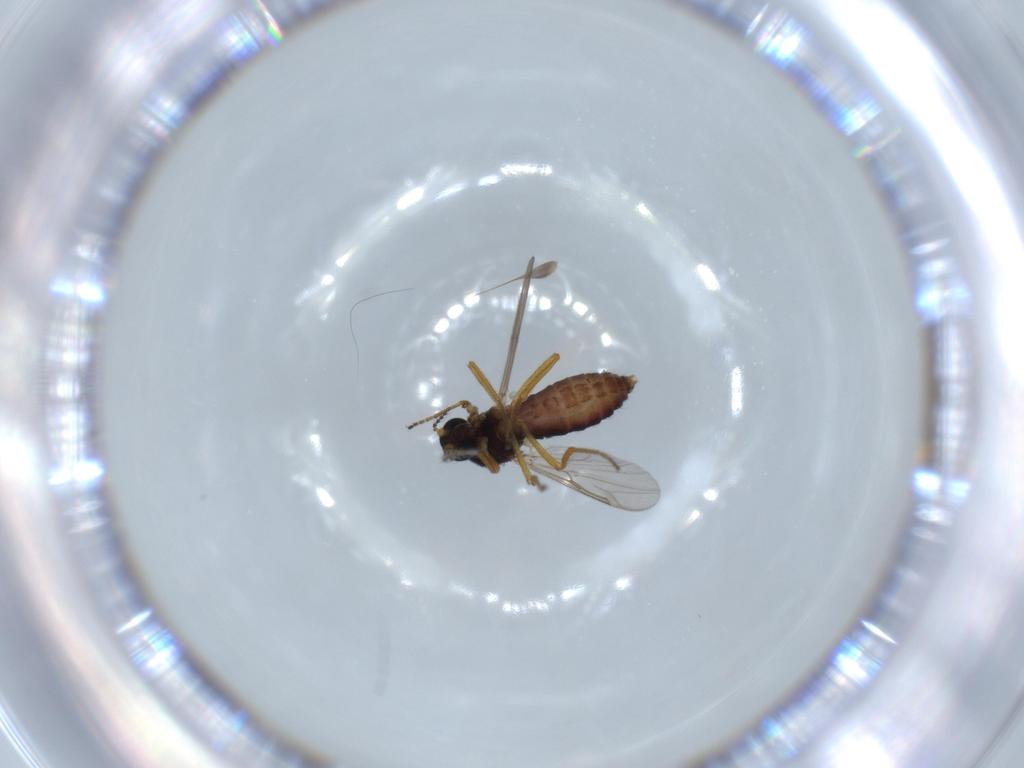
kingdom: Animalia
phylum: Arthropoda
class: Insecta
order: Diptera
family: Ceratopogonidae
